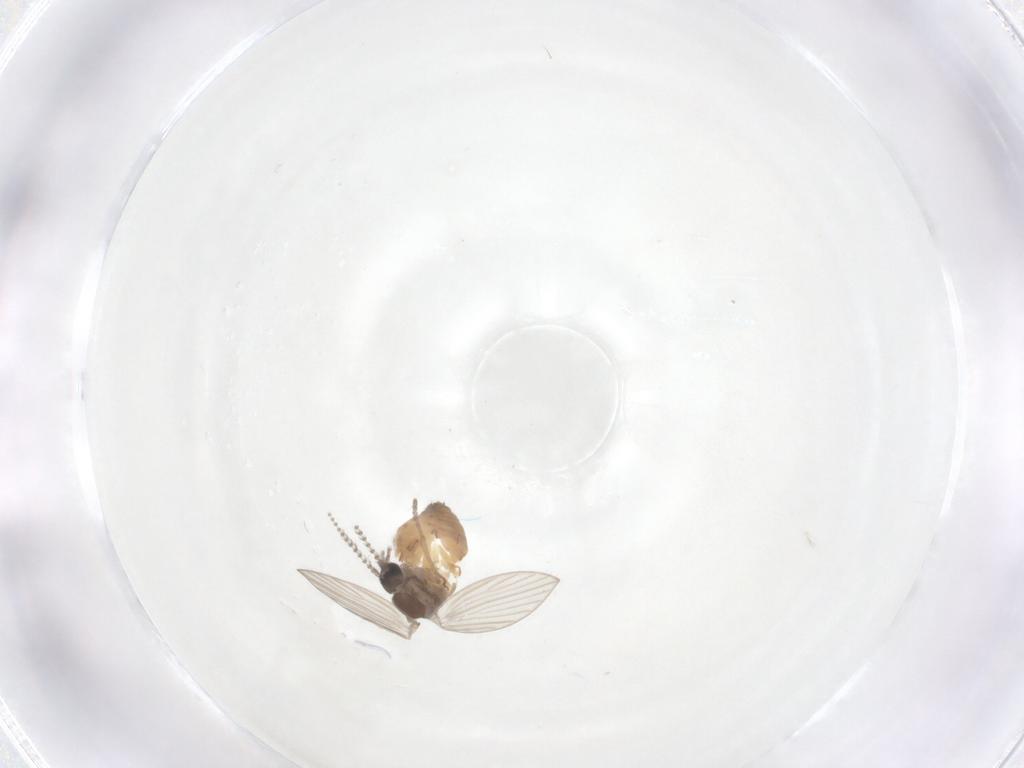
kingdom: Animalia
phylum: Arthropoda
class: Insecta
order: Diptera
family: Psychodidae
